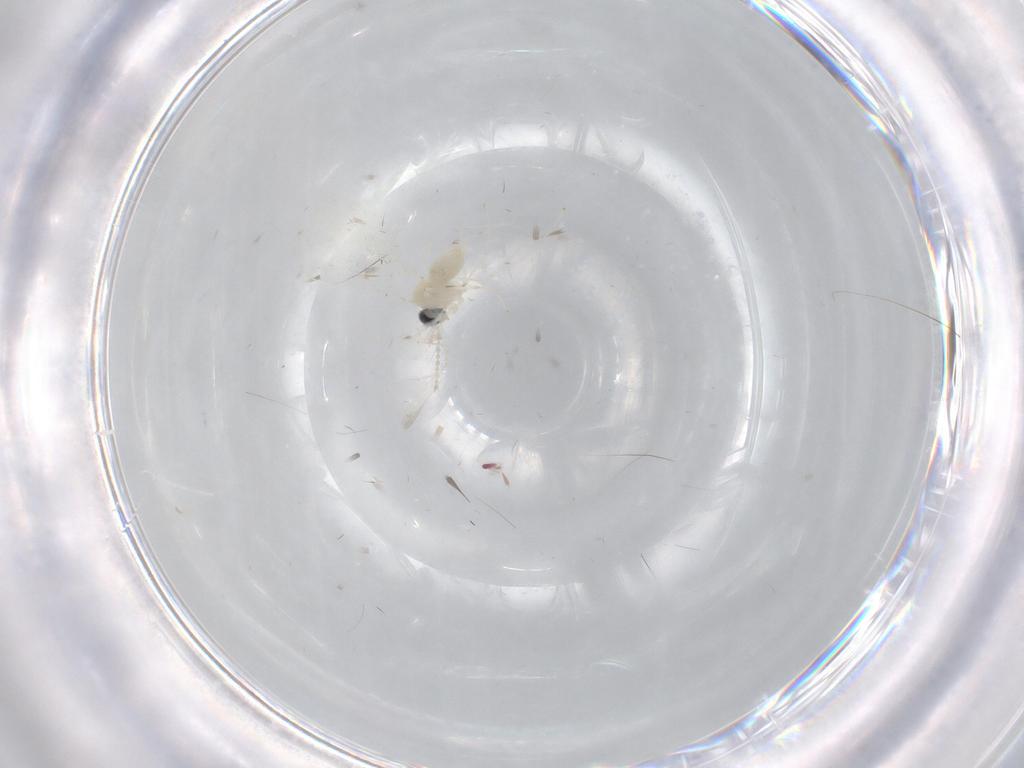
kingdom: Animalia
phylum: Arthropoda
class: Insecta
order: Diptera
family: Cecidomyiidae
